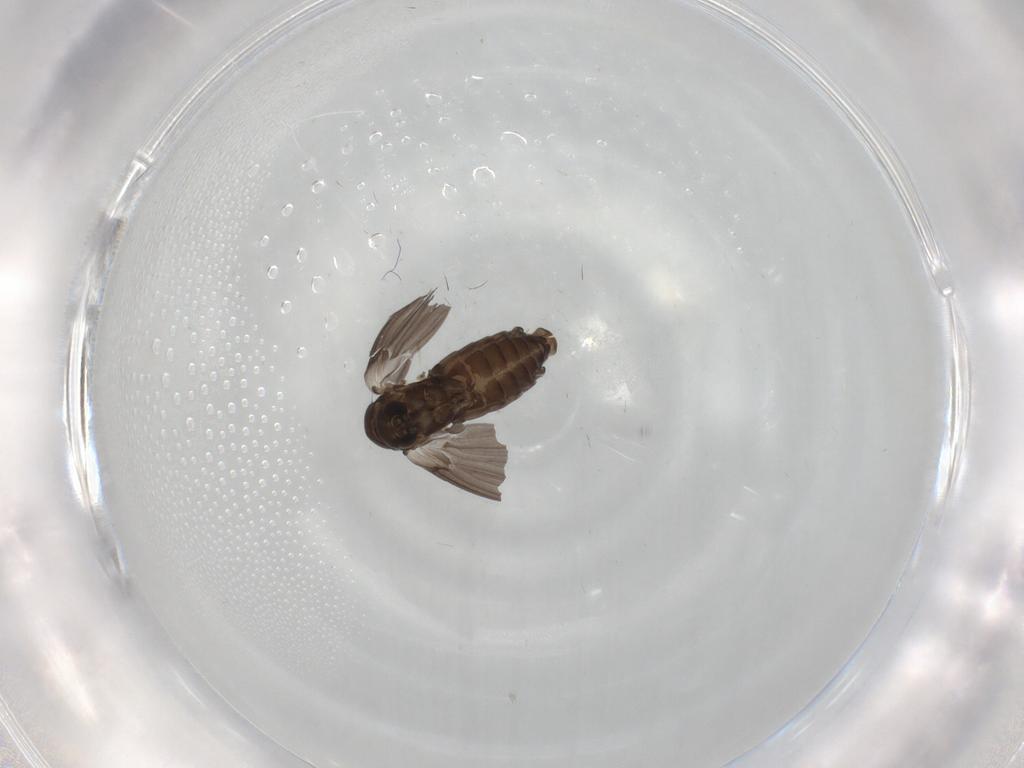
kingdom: Animalia
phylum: Arthropoda
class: Insecta
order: Diptera
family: Psychodidae
